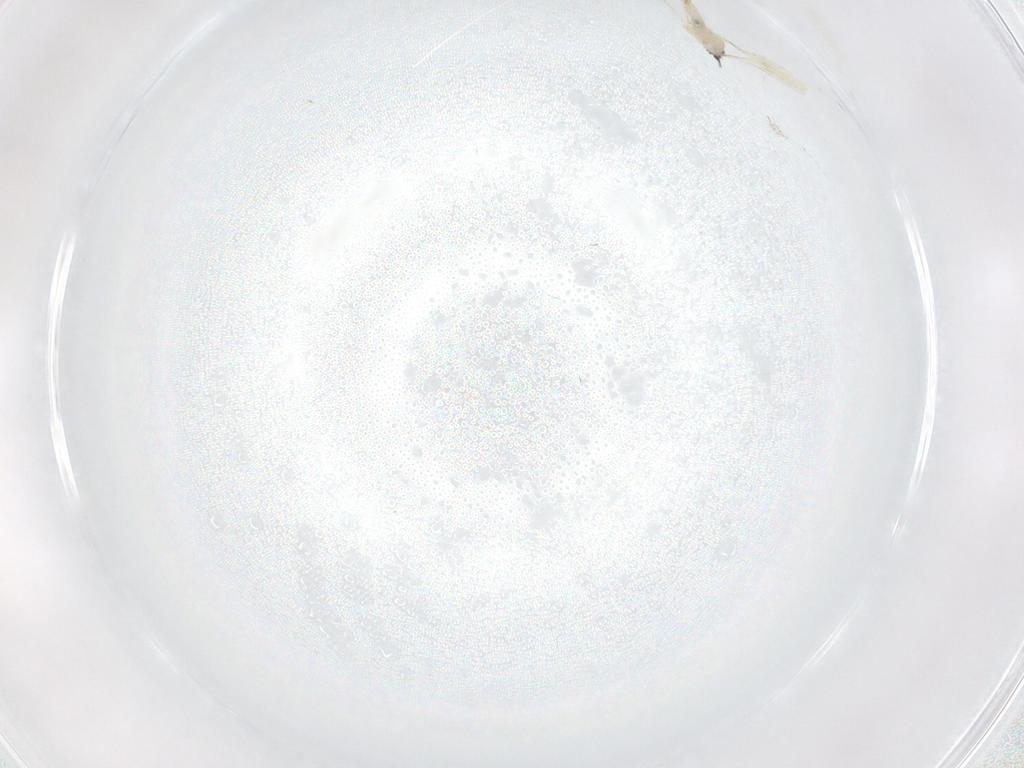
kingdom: Animalia
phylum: Arthropoda
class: Insecta
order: Diptera
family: Cecidomyiidae
